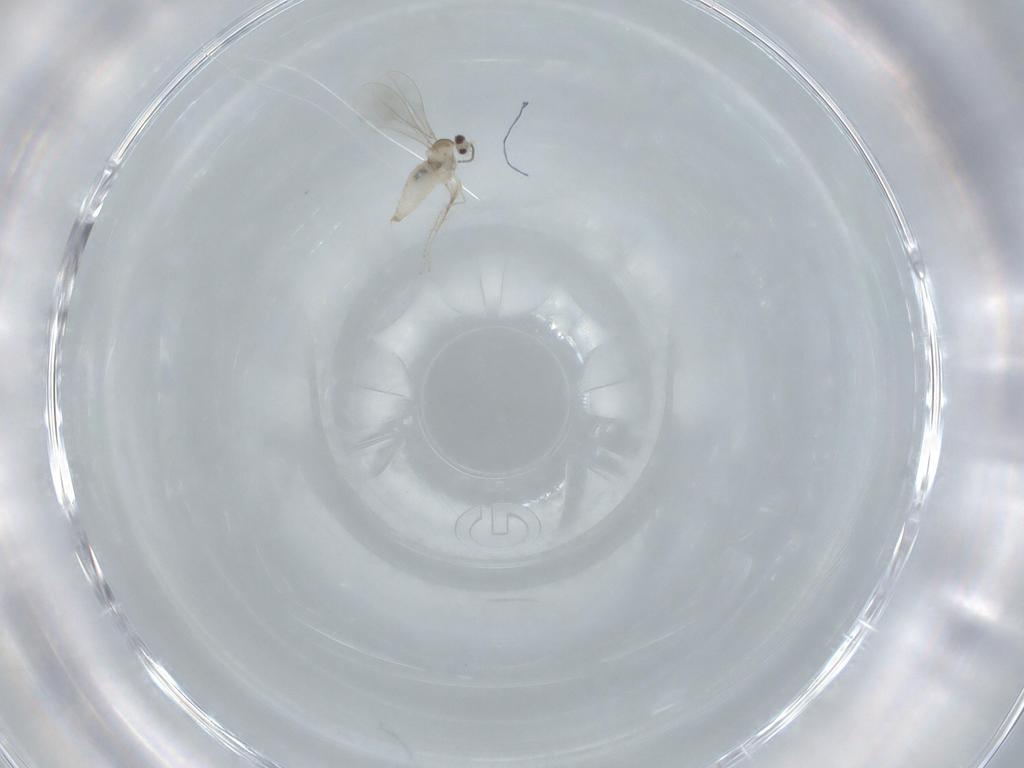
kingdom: Animalia
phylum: Arthropoda
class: Insecta
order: Diptera
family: Cecidomyiidae
